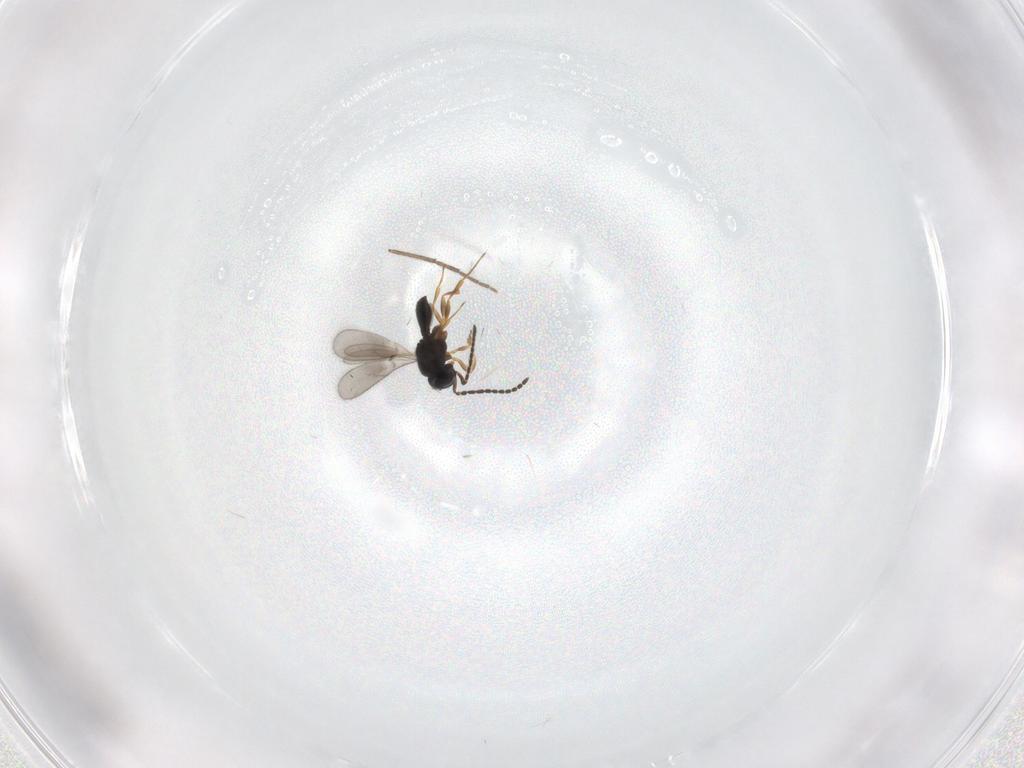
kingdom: Animalia
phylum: Arthropoda
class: Insecta
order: Hymenoptera
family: Scelionidae
